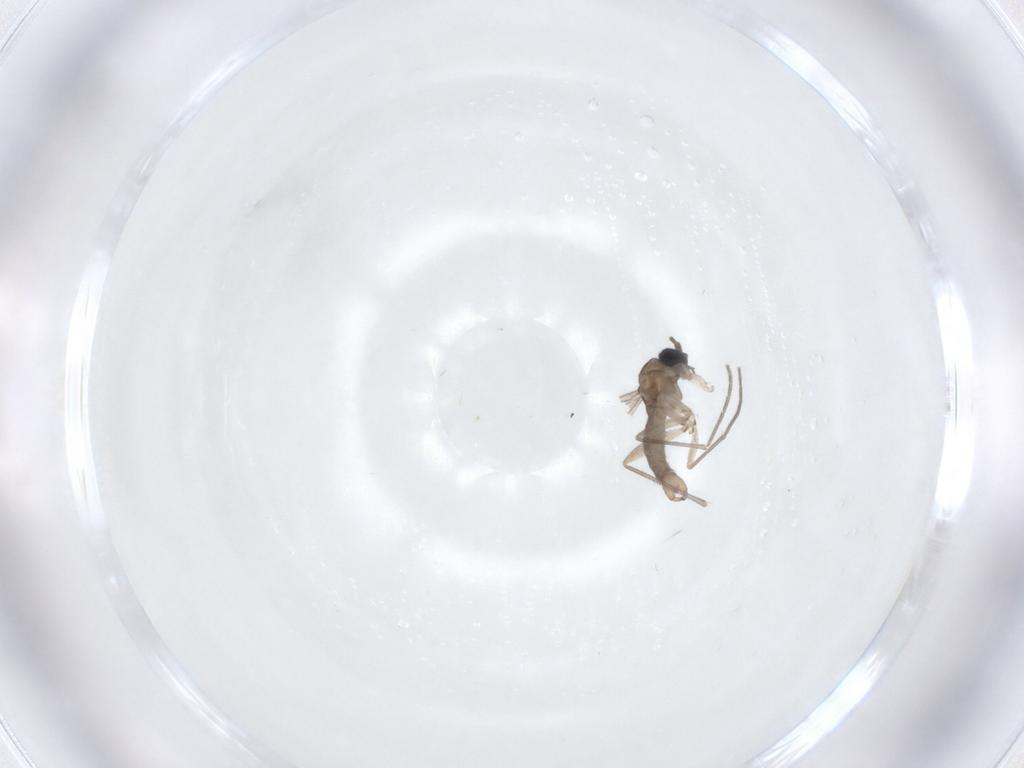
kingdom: Animalia
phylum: Arthropoda
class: Insecta
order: Diptera
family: Sciaridae
